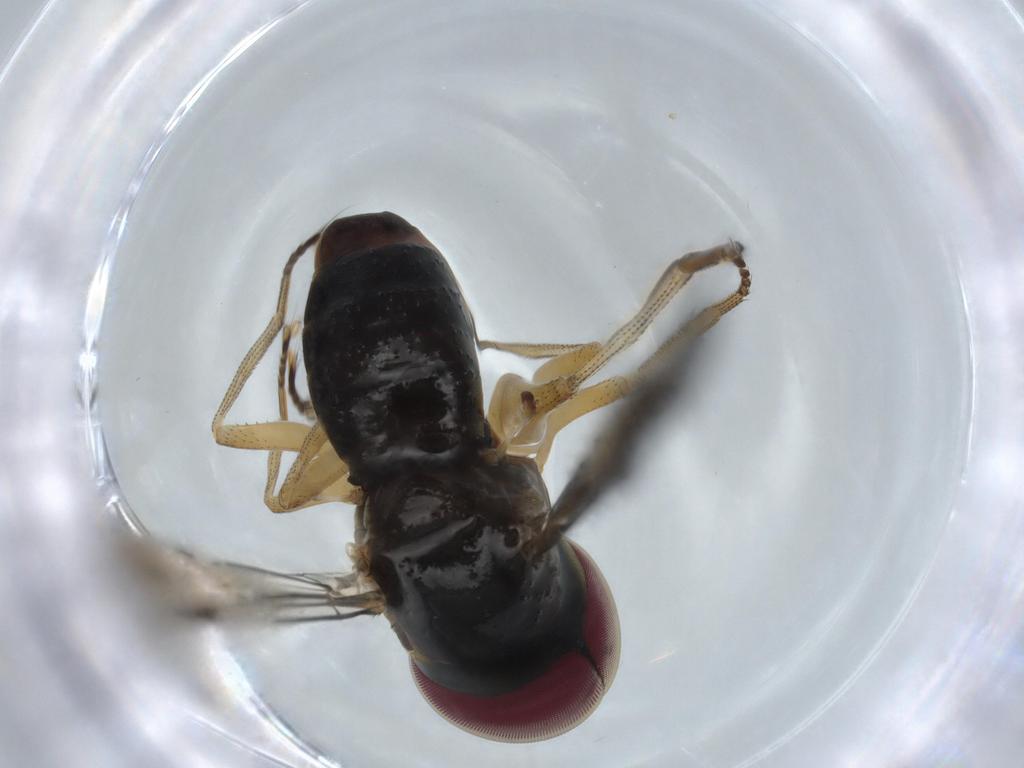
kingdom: Animalia
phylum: Arthropoda
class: Insecta
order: Diptera
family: Pipunculidae
